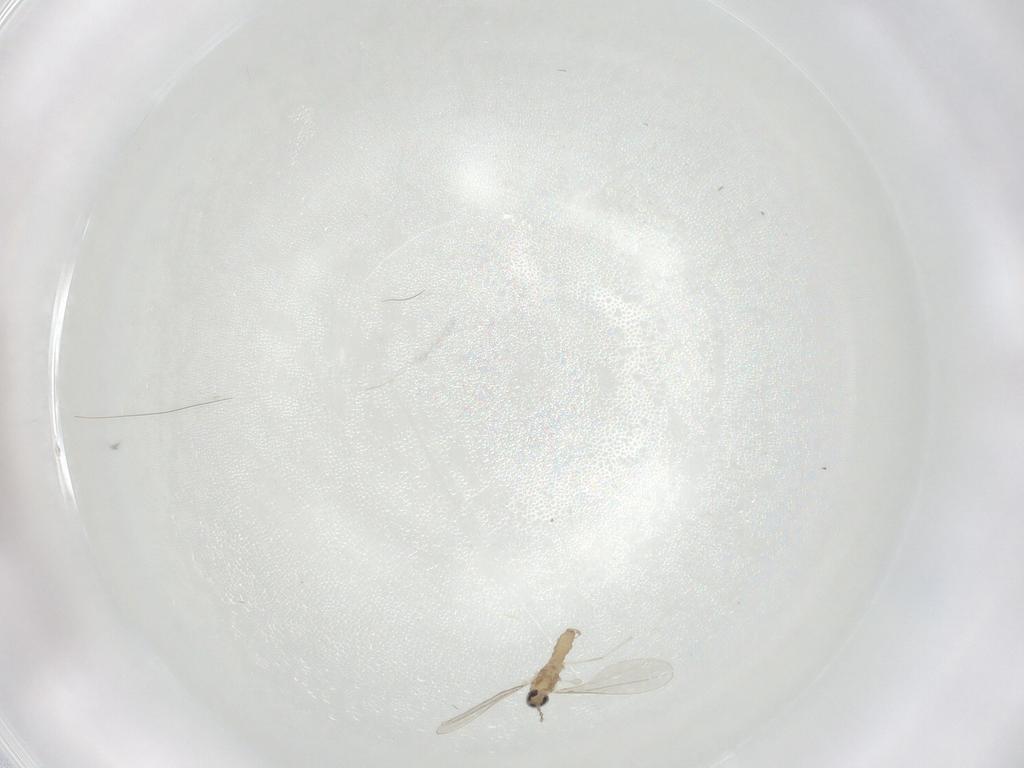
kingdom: Animalia
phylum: Arthropoda
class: Insecta
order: Diptera
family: Cecidomyiidae
